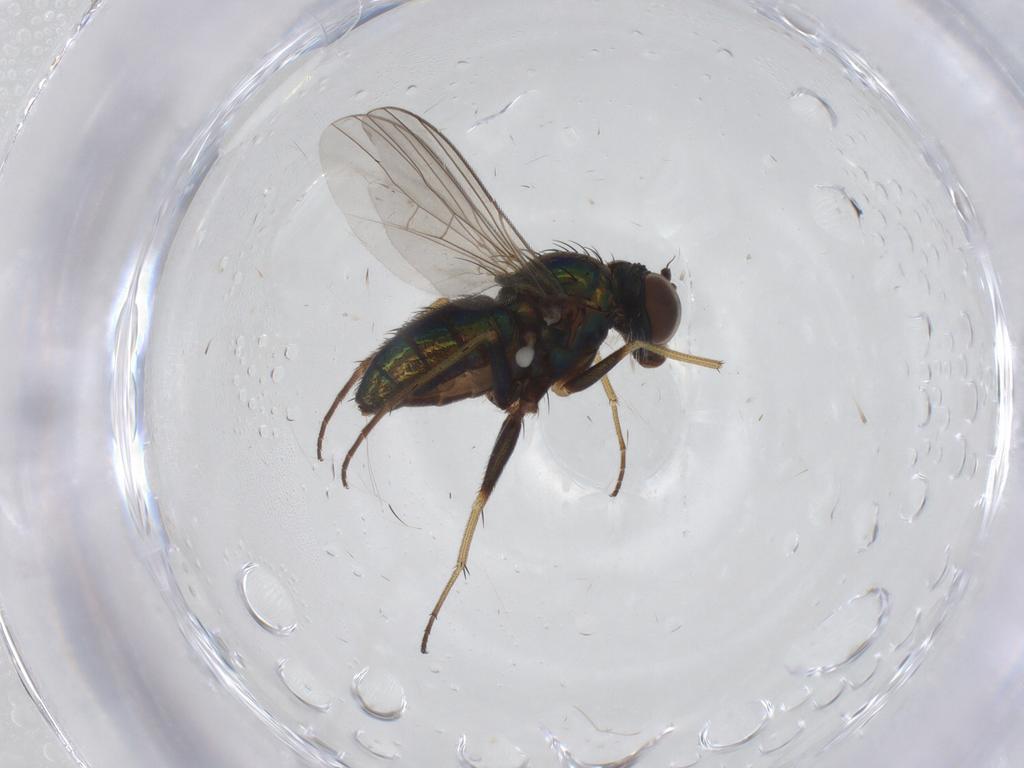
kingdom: Animalia
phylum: Arthropoda
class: Insecta
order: Diptera
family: Dolichopodidae
